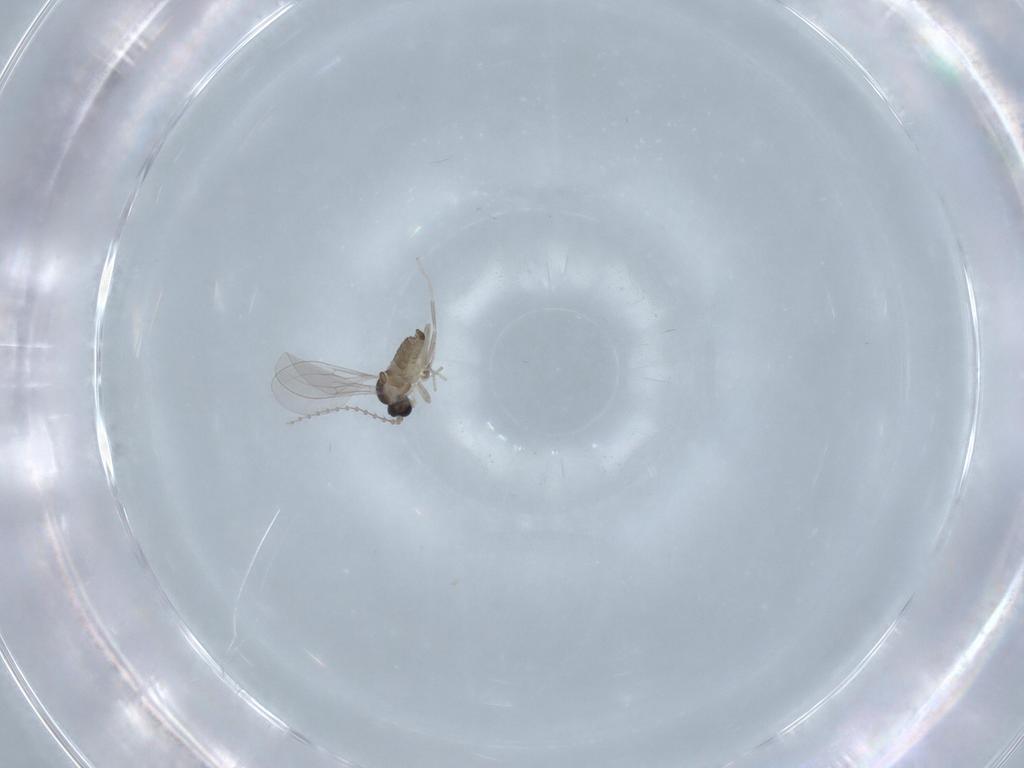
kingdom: Animalia
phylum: Arthropoda
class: Insecta
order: Diptera
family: Cecidomyiidae
